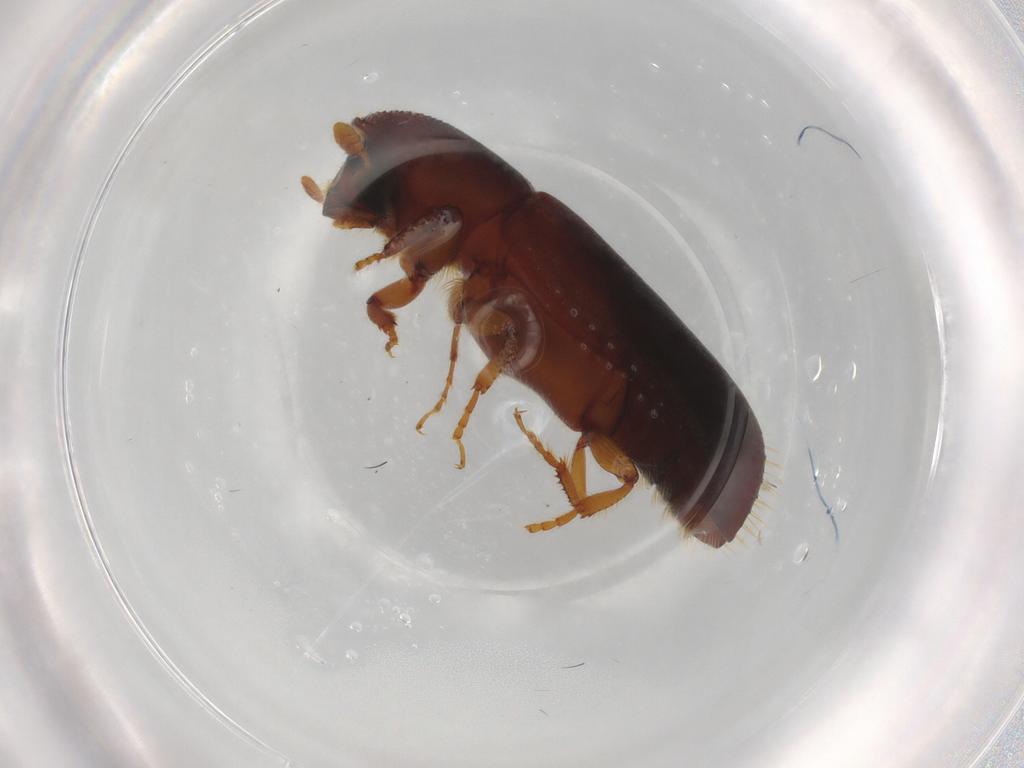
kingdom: Animalia
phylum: Arthropoda
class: Insecta
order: Coleoptera
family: Curculionidae
